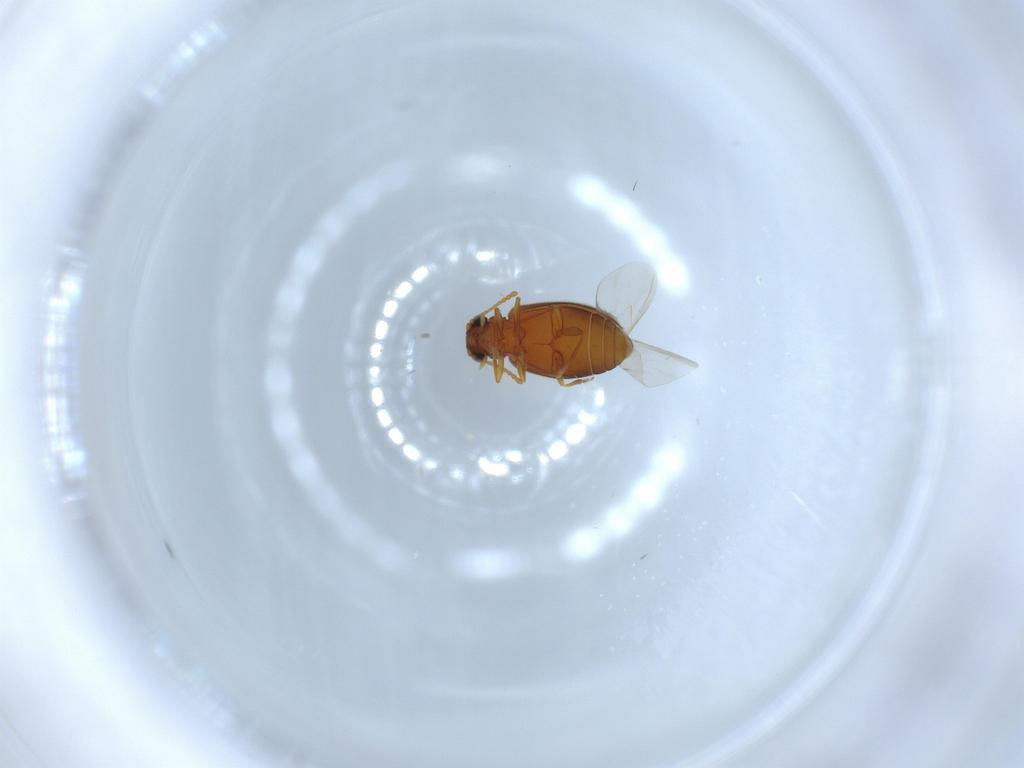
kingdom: Animalia
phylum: Arthropoda
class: Insecta
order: Coleoptera
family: Aderidae
